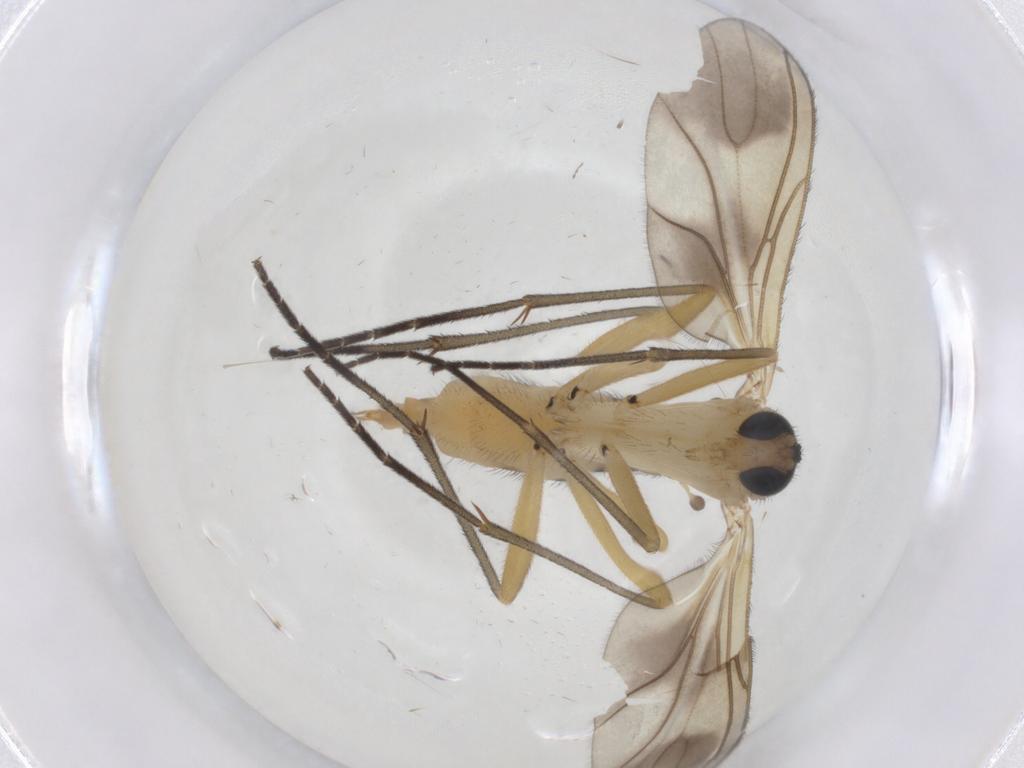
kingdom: Animalia
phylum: Arthropoda
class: Insecta
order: Diptera
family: Sciaridae
